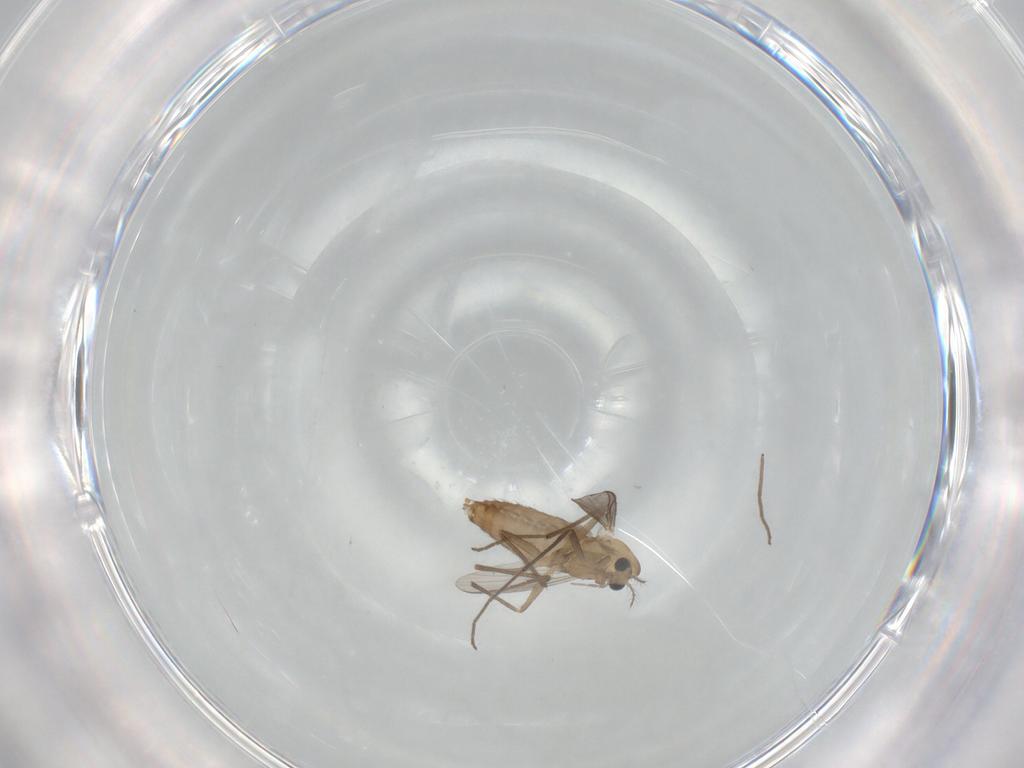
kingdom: Animalia
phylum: Arthropoda
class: Insecta
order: Diptera
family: Chironomidae
